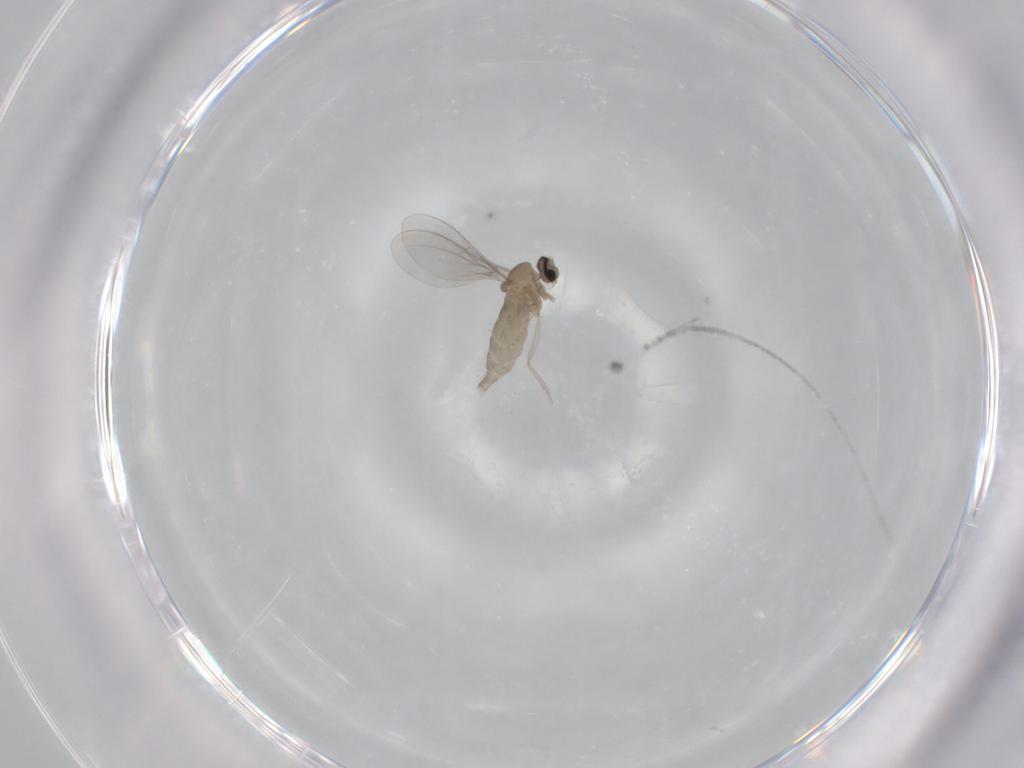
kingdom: Animalia
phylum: Arthropoda
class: Insecta
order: Diptera
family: Cecidomyiidae
